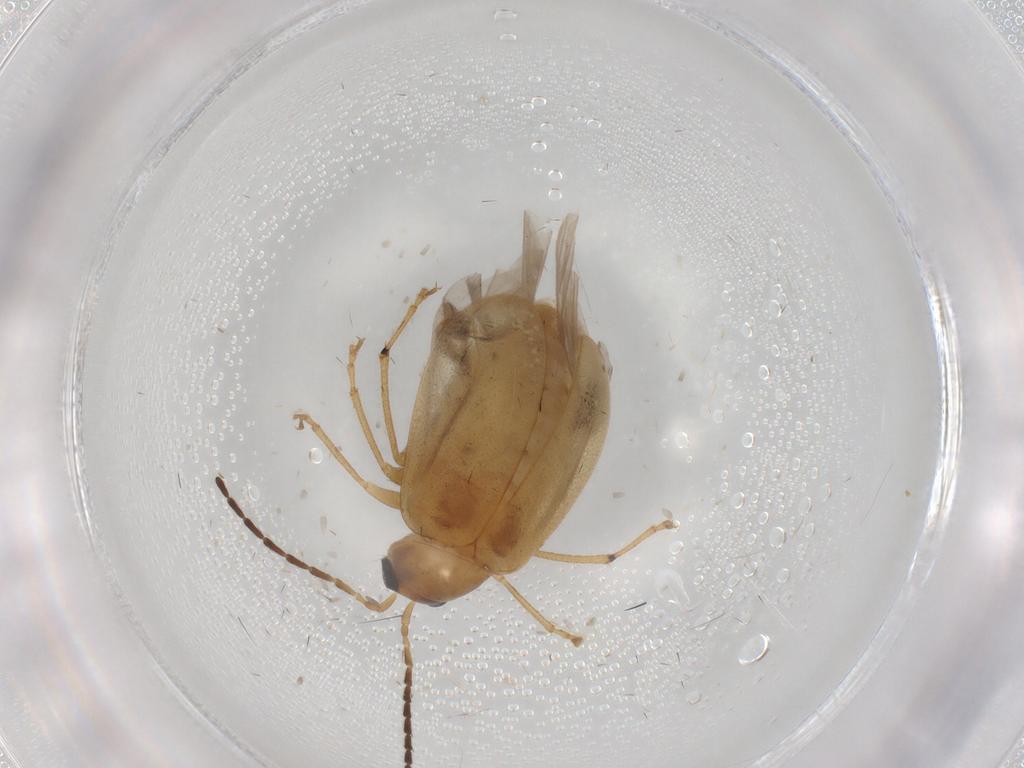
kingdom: Animalia
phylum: Arthropoda
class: Insecta
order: Coleoptera
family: Chrysomelidae
